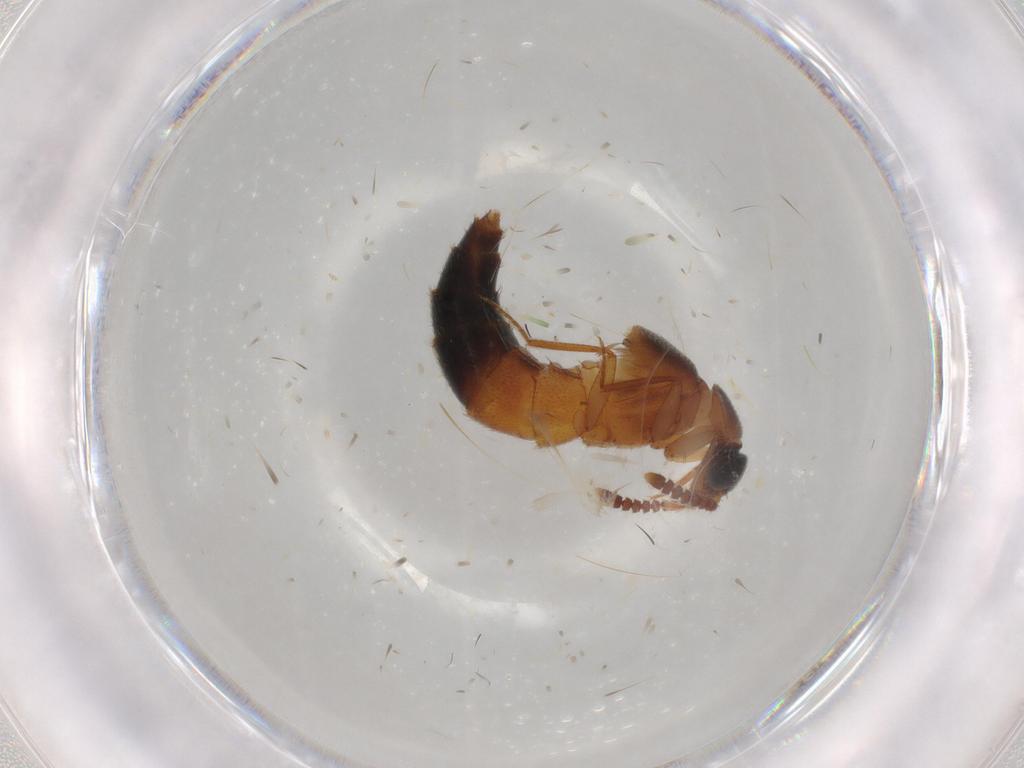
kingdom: Animalia
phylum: Arthropoda
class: Insecta
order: Coleoptera
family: Staphylinidae
